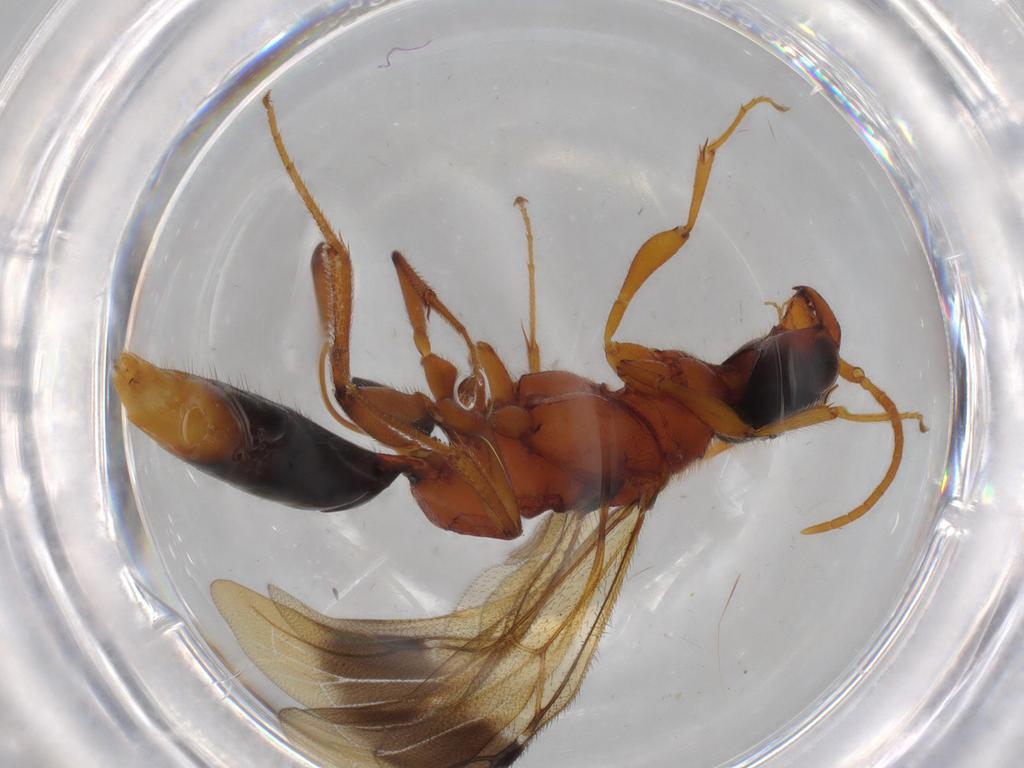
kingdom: Animalia
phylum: Arthropoda
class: Insecta
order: Hymenoptera
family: Bethylidae
